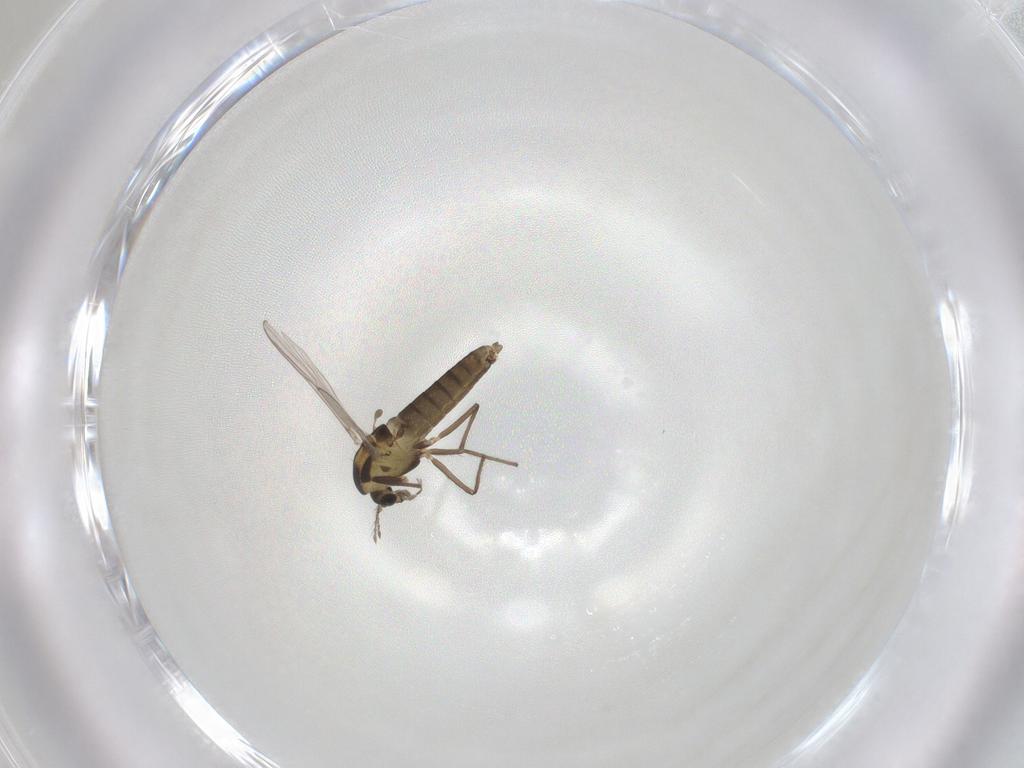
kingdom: Animalia
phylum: Arthropoda
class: Insecta
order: Diptera
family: Chironomidae
